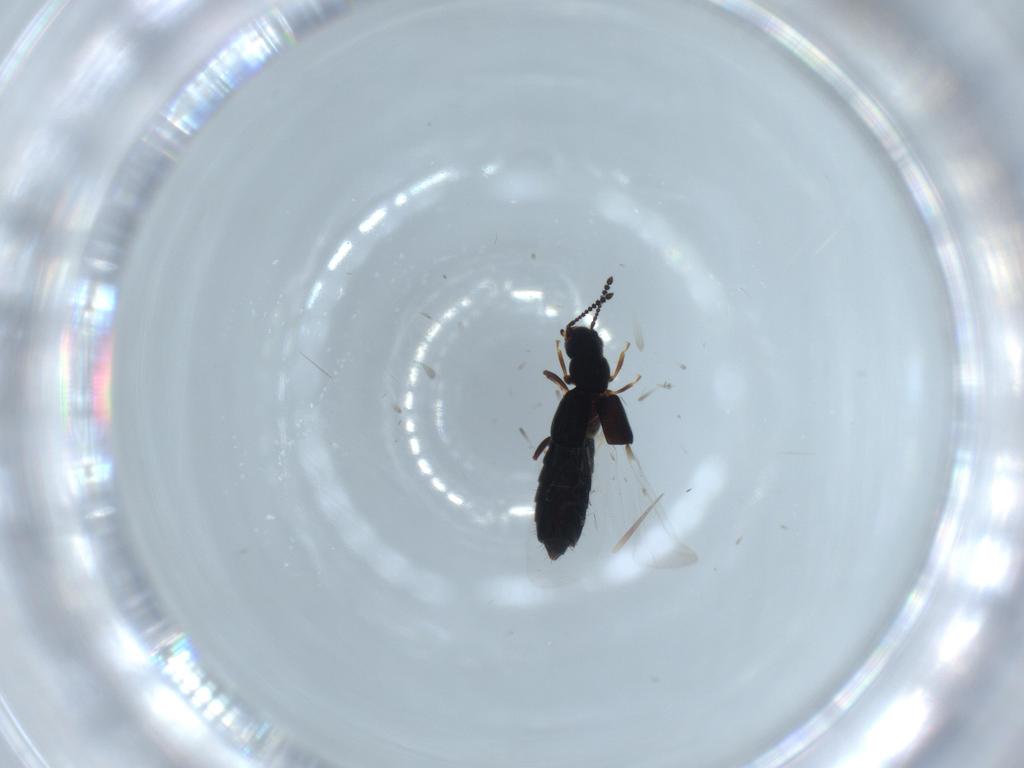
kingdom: Animalia
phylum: Arthropoda
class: Insecta
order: Coleoptera
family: Staphylinidae
